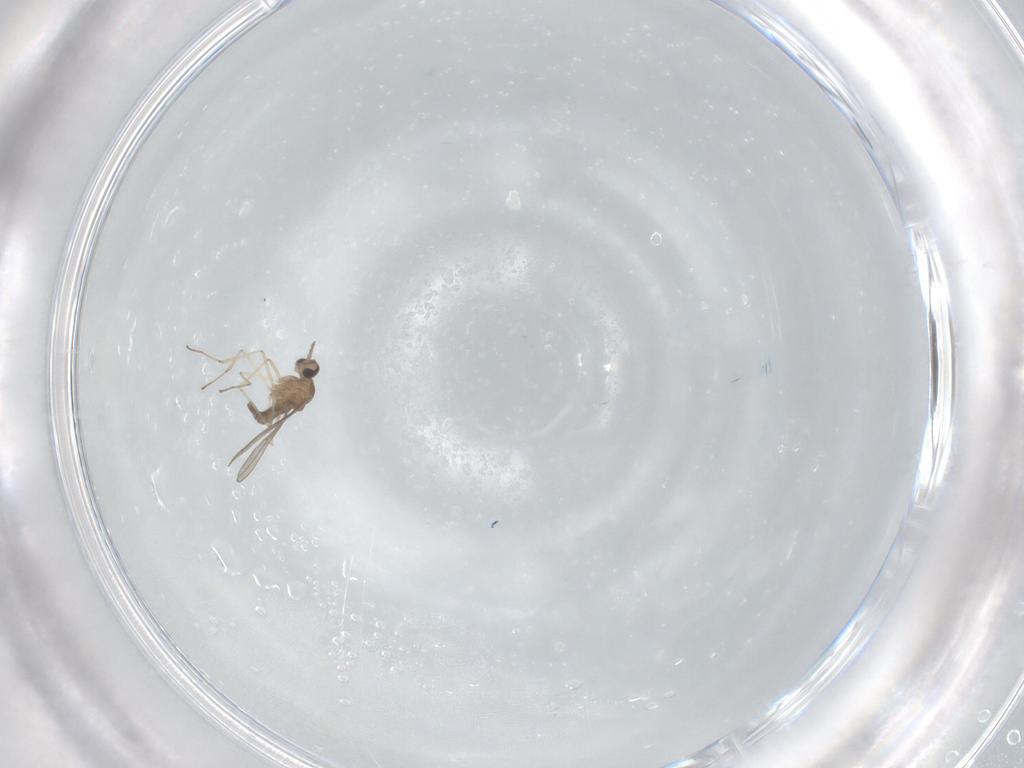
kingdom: Animalia
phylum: Arthropoda
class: Insecta
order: Diptera
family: Cecidomyiidae
